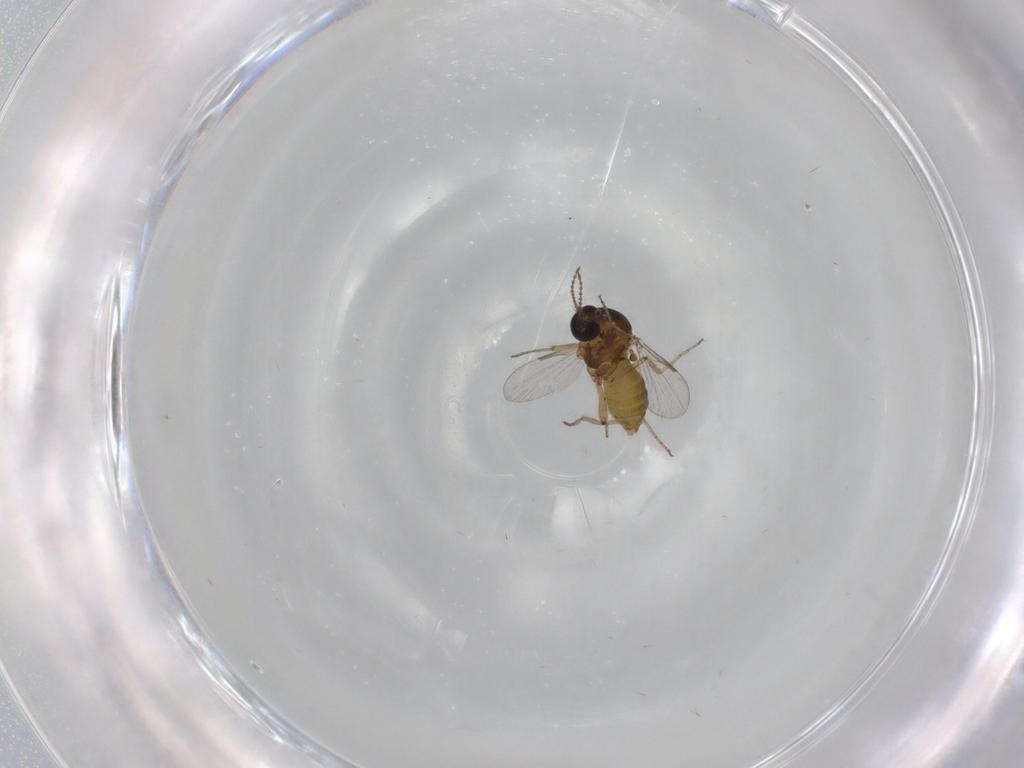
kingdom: Animalia
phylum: Arthropoda
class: Insecta
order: Diptera
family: Ceratopogonidae
